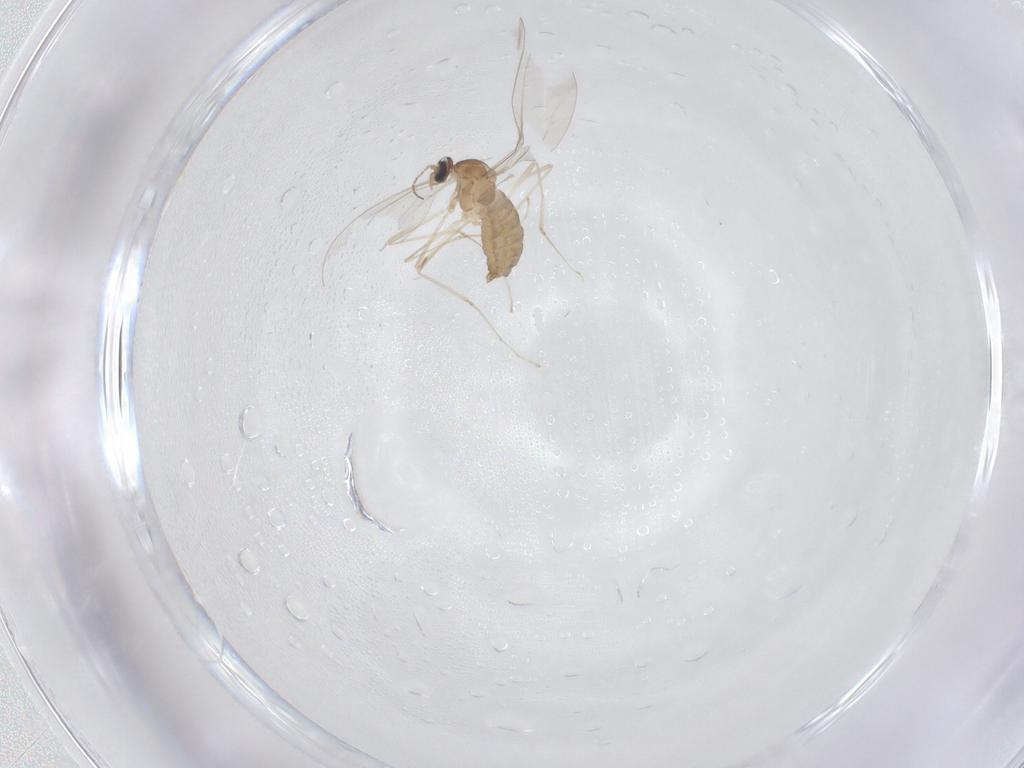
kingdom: Animalia
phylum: Arthropoda
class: Insecta
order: Diptera
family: Cecidomyiidae
